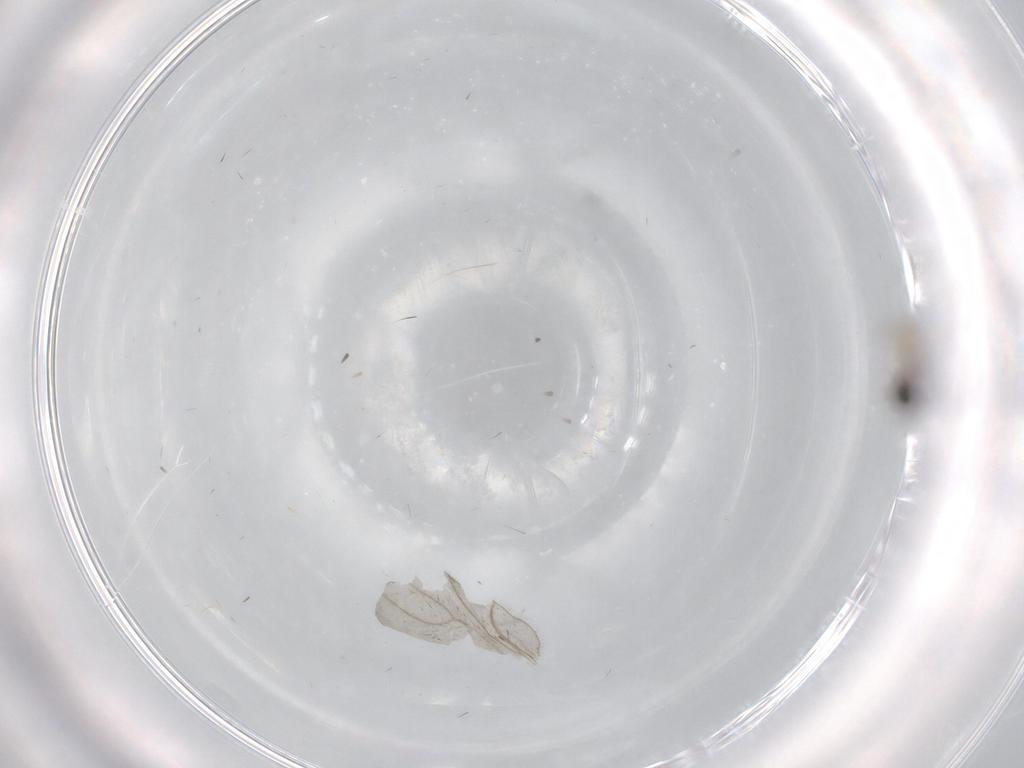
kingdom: Animalia
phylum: Arthropoda
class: Insecta
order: Diptera
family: Cecidomyiidae
